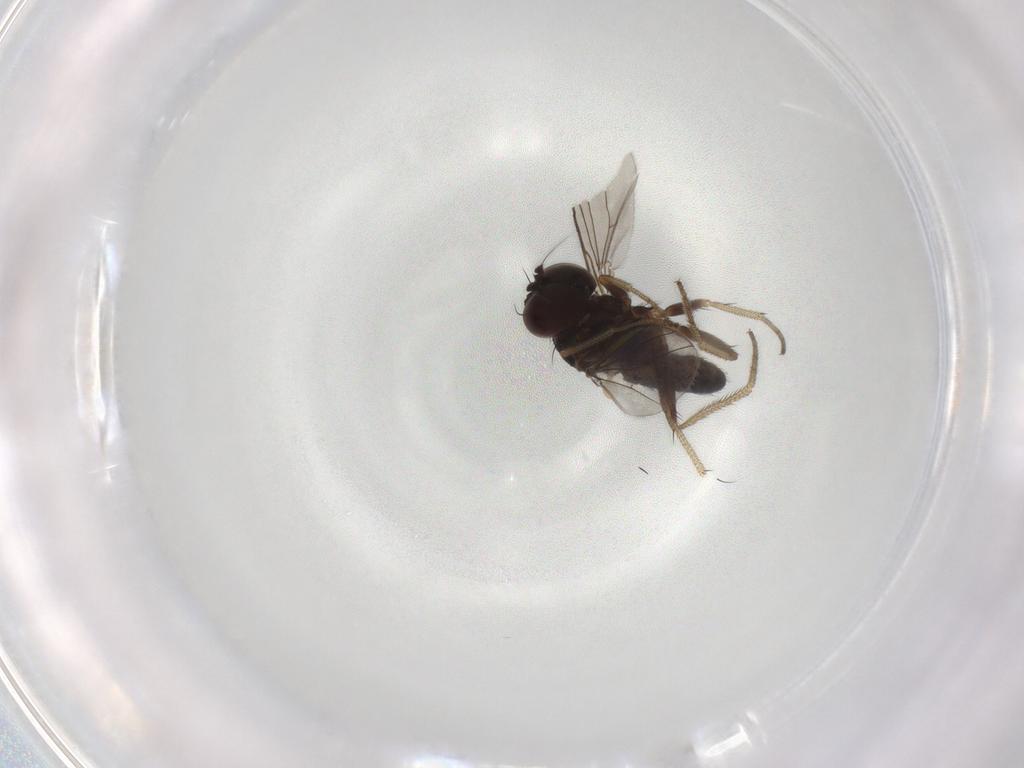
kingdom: Animalia
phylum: Arthropoda
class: Insecta
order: Diptera
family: Dolichopodidae
